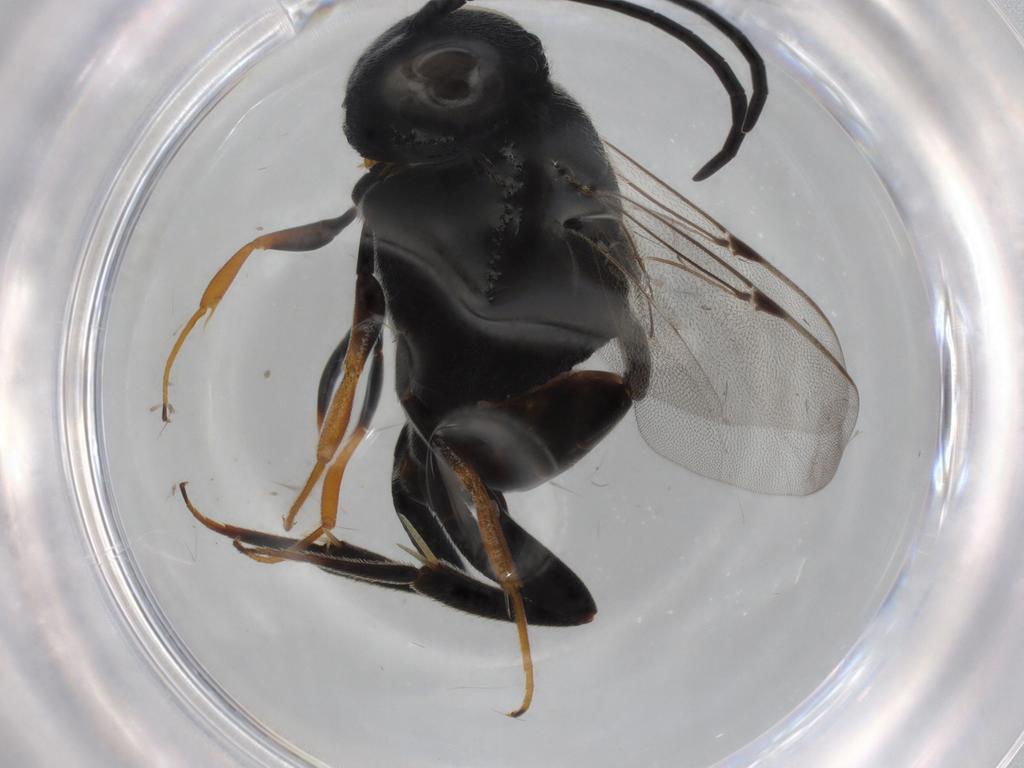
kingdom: Animalia
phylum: Arthropoda
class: Insecta
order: Hymenoptera
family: Evaniidae
